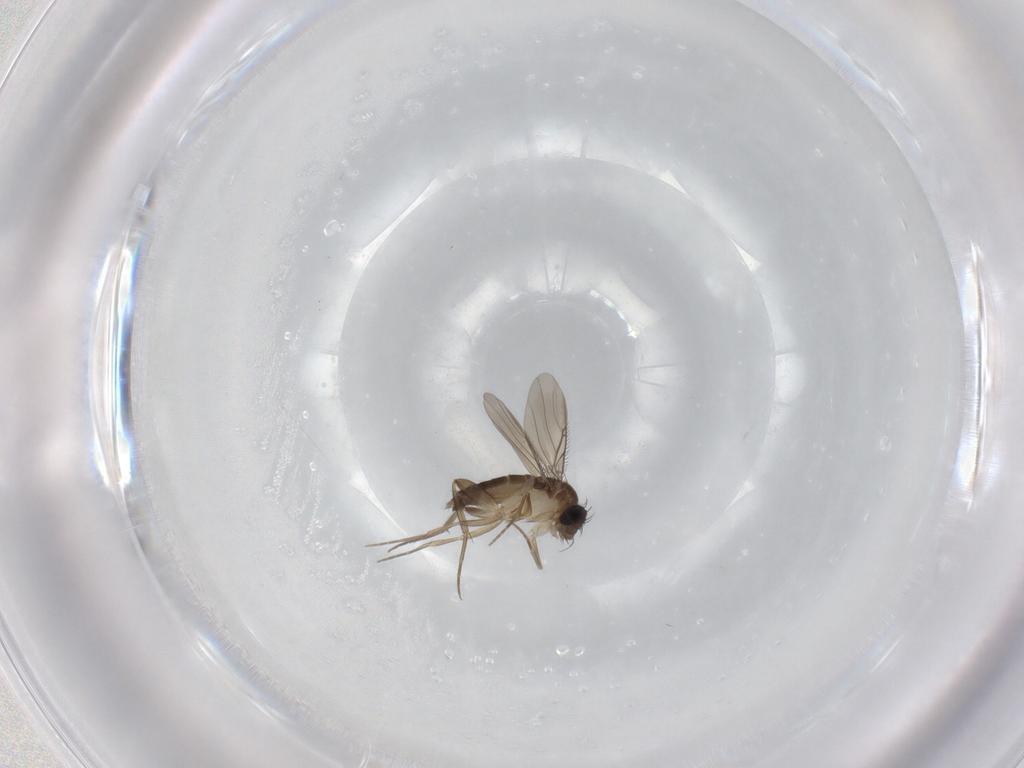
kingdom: Animalia
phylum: Arthropoda
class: Insecta
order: Diptera
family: Phoridae
